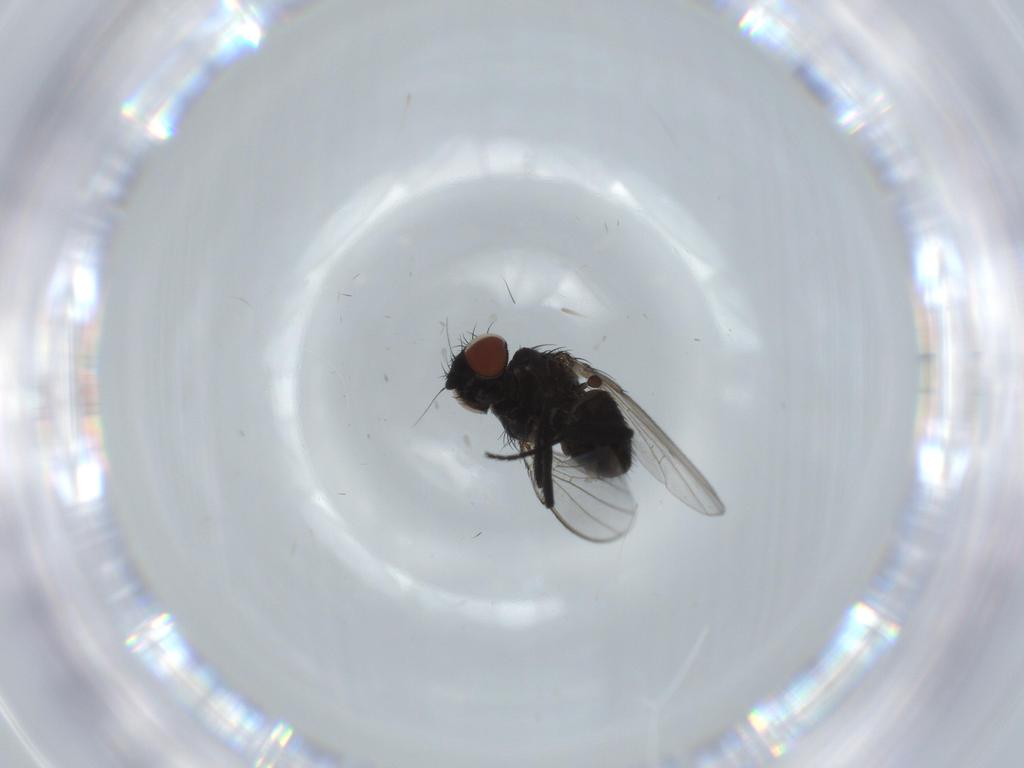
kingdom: Animalia
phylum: Arthropoda
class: Insecta
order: Diptera
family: Milichiidae
